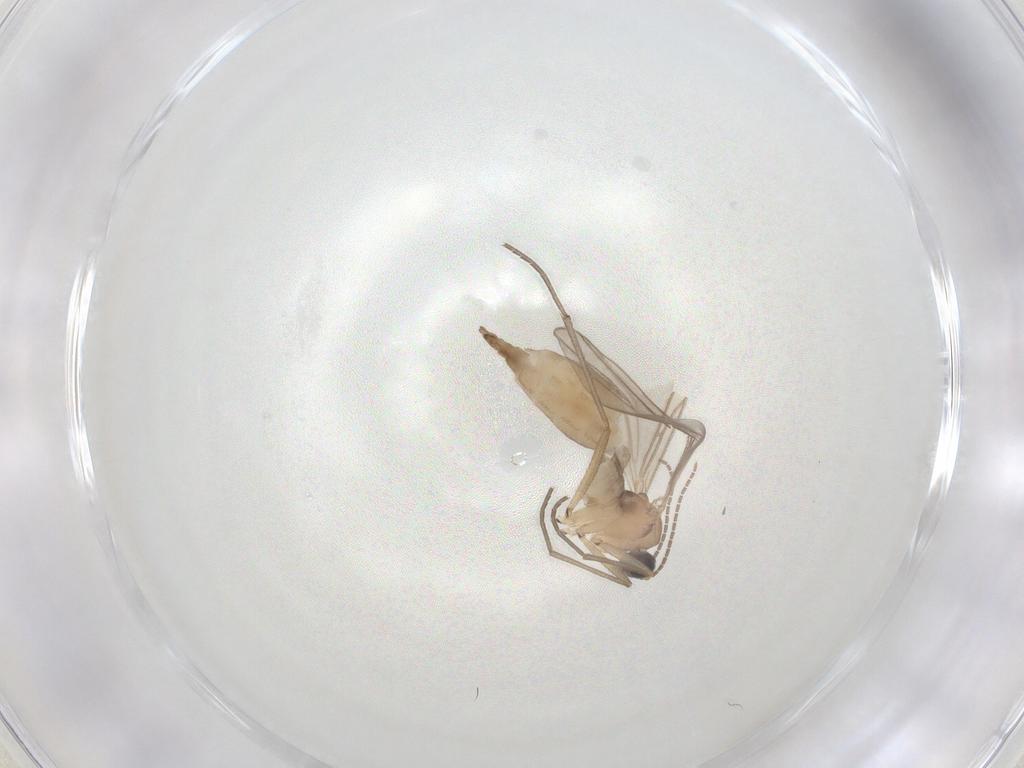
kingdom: Animalia
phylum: Arthropoda
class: Insecta
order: Diptera
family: Sciaridae
